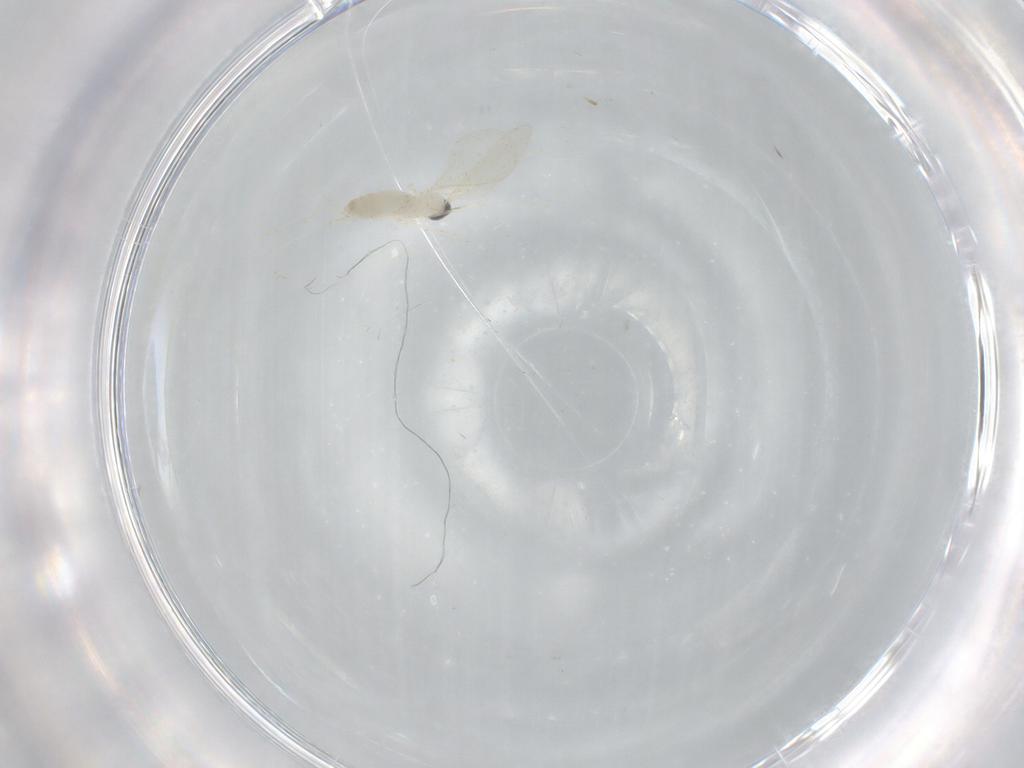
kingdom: Animalia
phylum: Arthropoda
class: Insecta
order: Diptera
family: Cecidomyiidae
